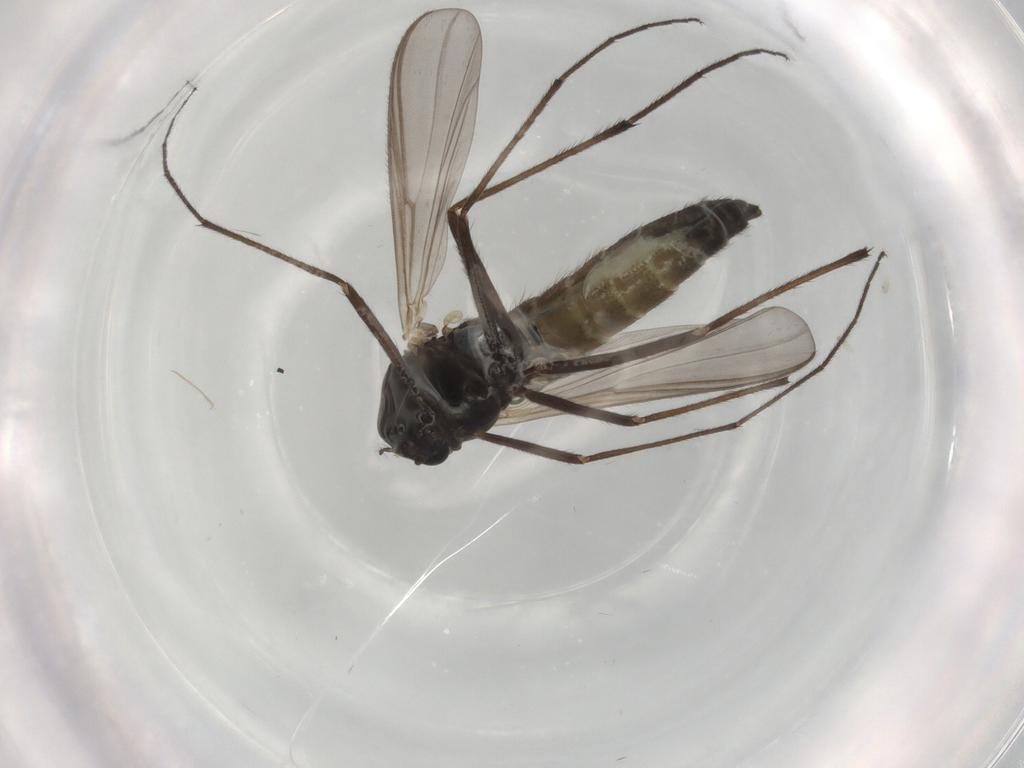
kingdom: Animalia
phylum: Arthropoda
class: Insecta
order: Diptera
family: Chironomidae
